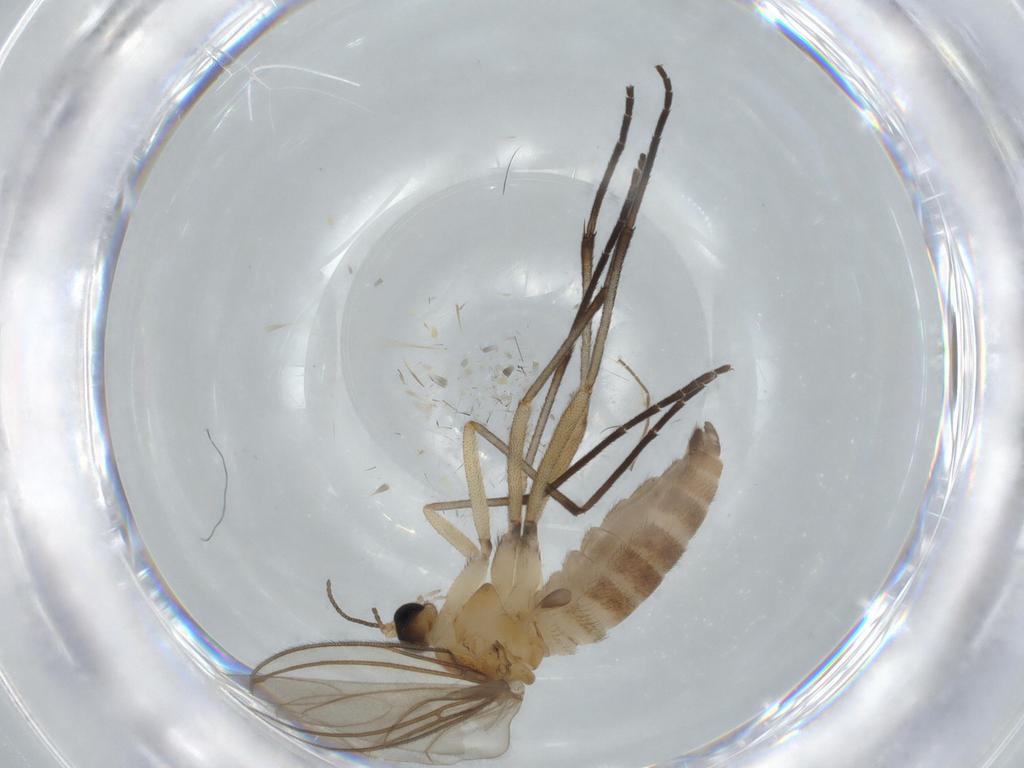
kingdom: Animalia
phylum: Arthropoda
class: Insecta
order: Diptera
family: Sciaridae
